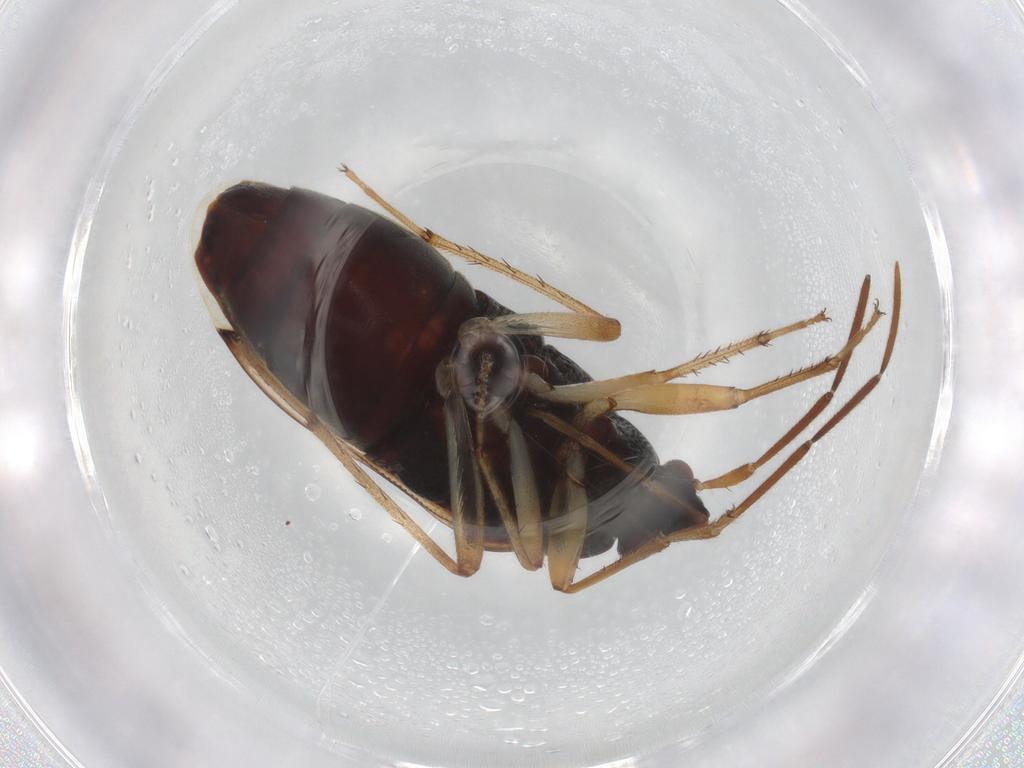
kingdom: Animalia
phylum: Arthropoda
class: Insecta
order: Hemiptera
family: Rhyparochromidae
